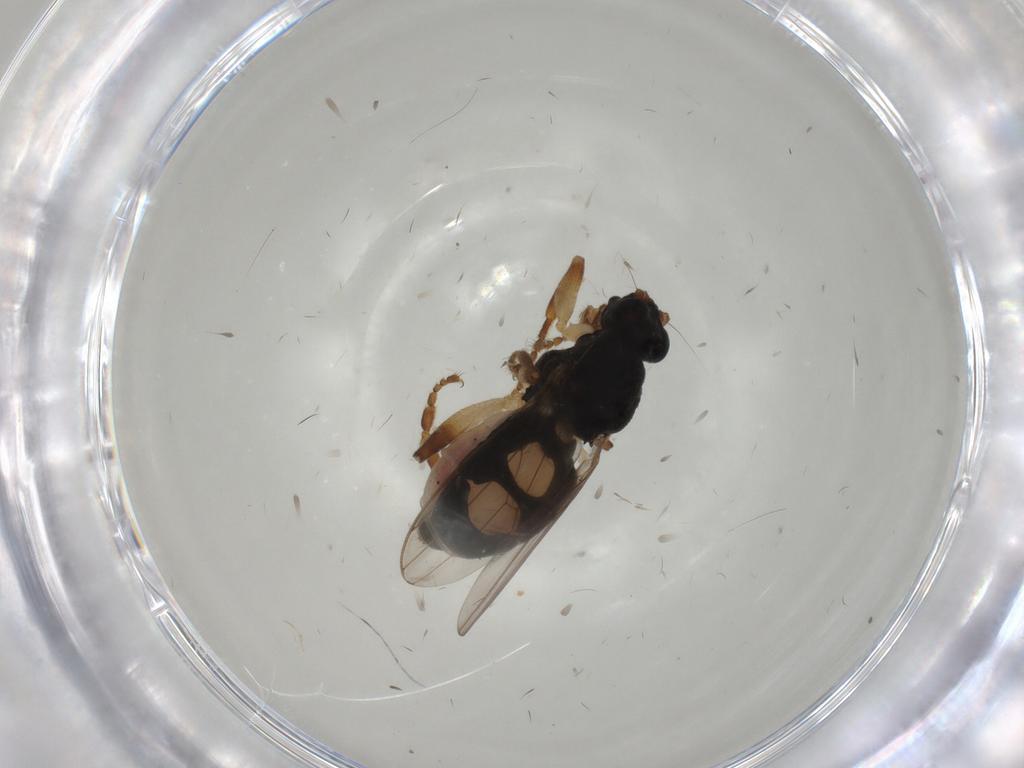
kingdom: Animalia
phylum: Arthropoda
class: Insecta
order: Diptera
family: Psychodidae
